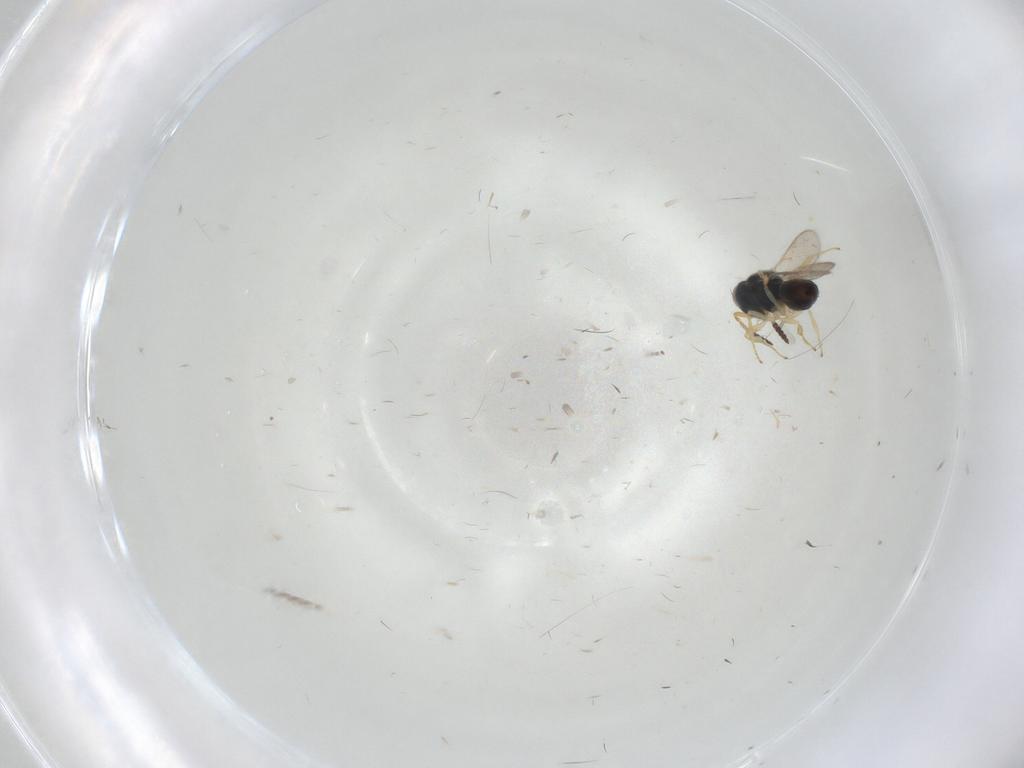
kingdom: Animalia
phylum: Arthropoda
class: Insecta
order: Hymenoptera
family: Scelionidae
